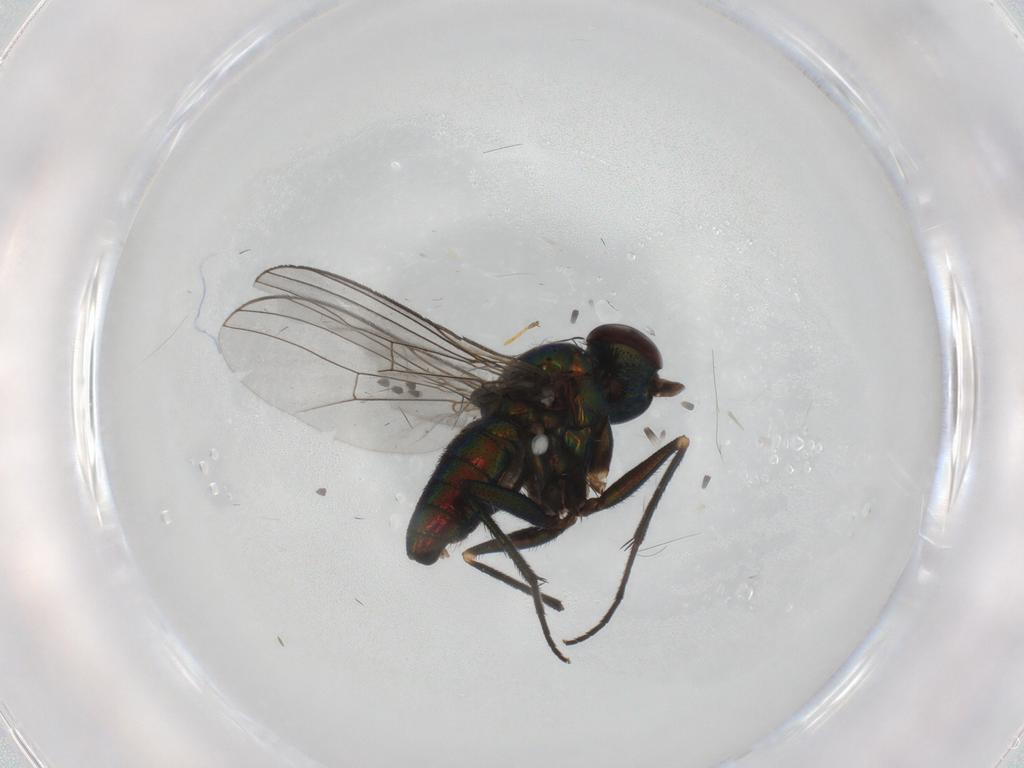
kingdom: Animalia
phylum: Arthropoda
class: Insecta
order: Diptera
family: Dolichopodidae
